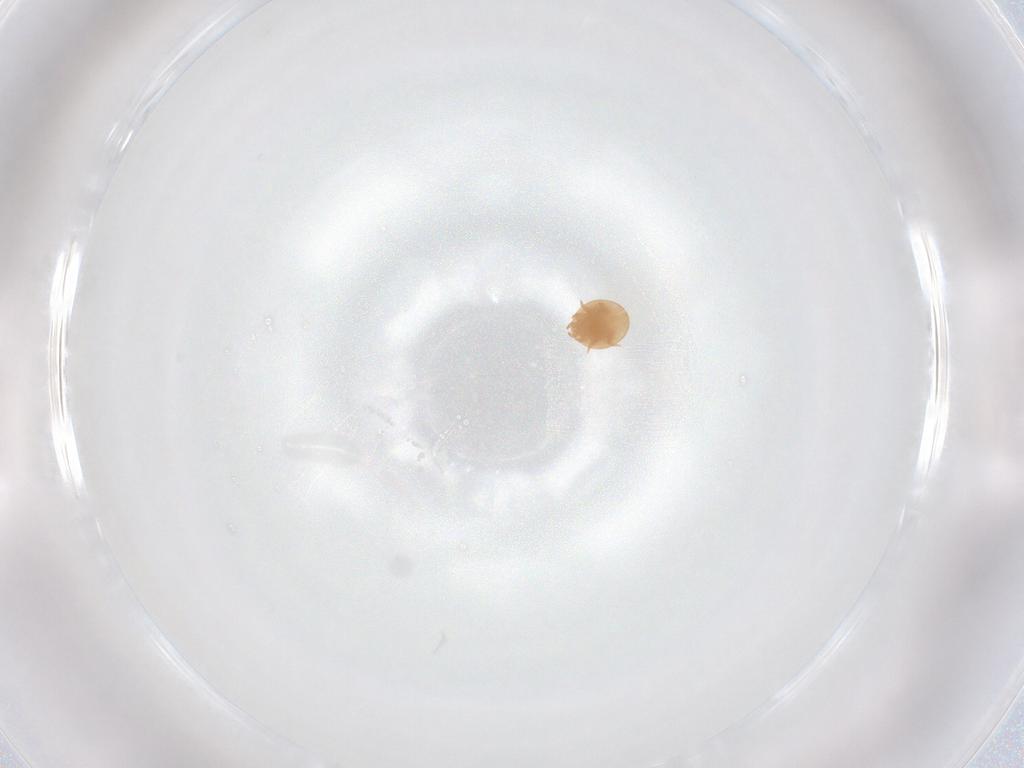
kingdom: Animalia
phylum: Arthropoda
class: Arachnida
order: Mesostigmata
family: Trematuridae
